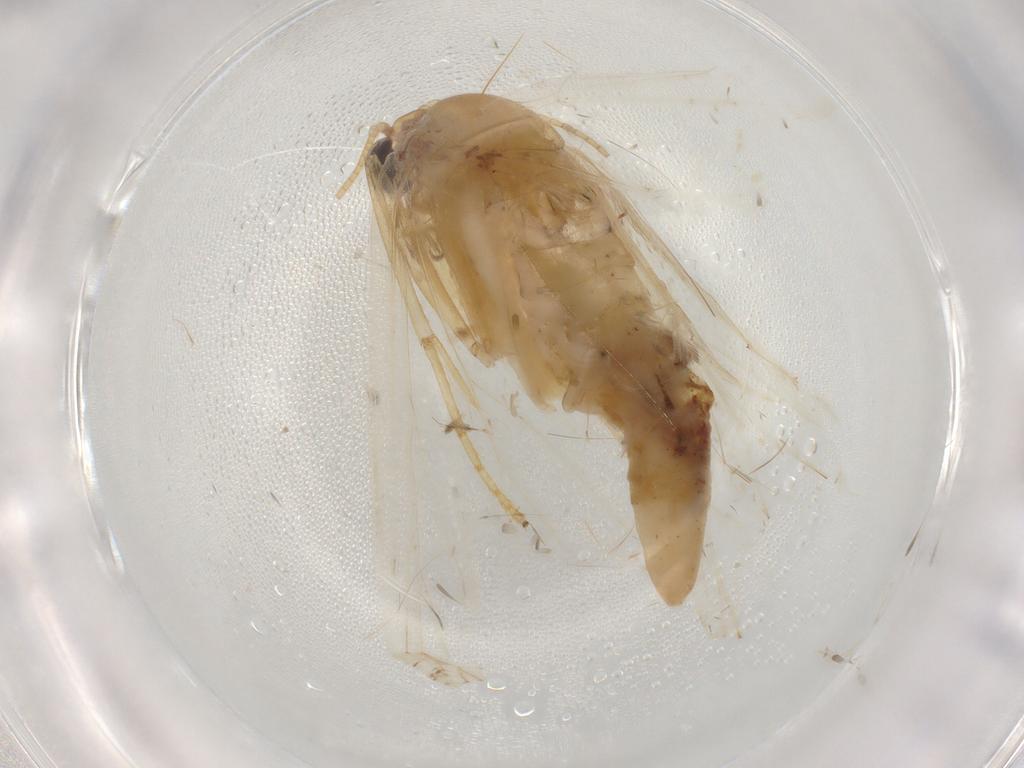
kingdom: Animalia
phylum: Arthropoda
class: Insecta
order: Lepidoptera
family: Geometridae
